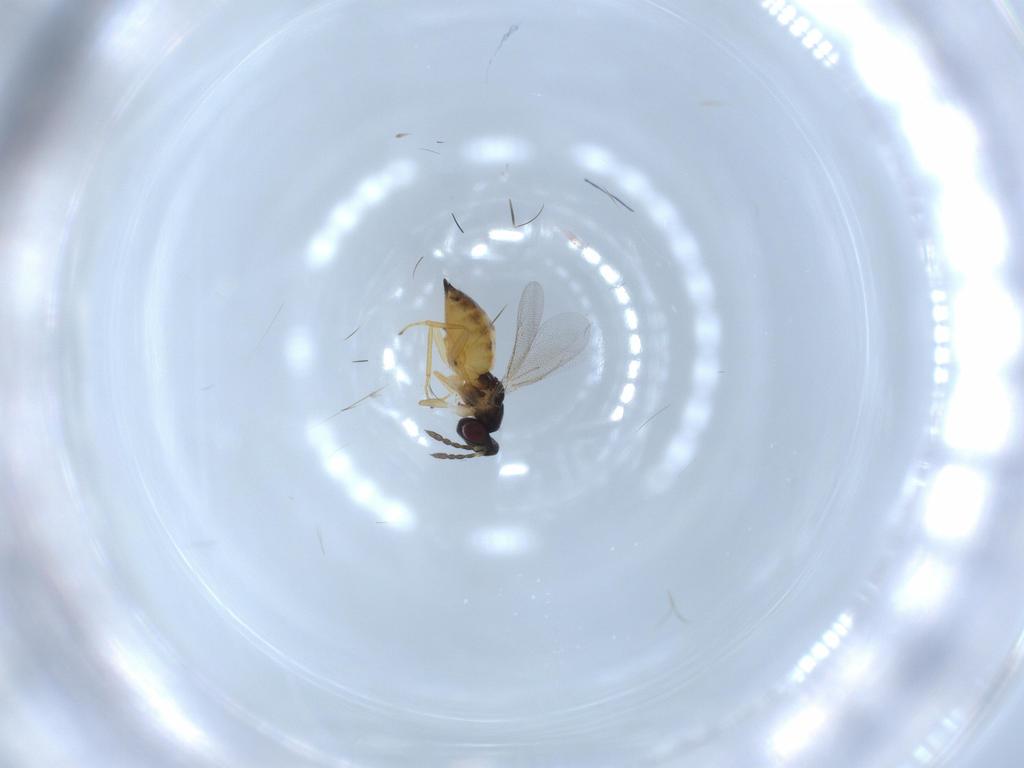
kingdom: Animalia
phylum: Arthropoda
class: Insecta
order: Hymenoptera
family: Eulophidae
